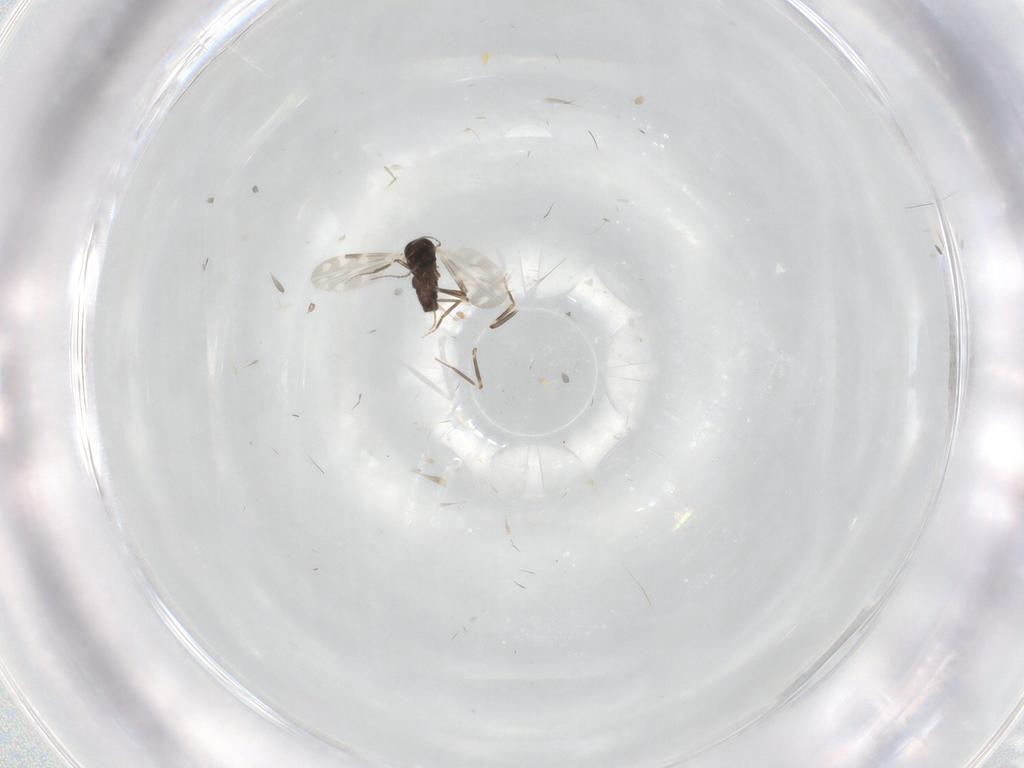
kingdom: Animalia
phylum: Arthropoda
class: Insecta
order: Diptera
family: Ceratopogonidae
